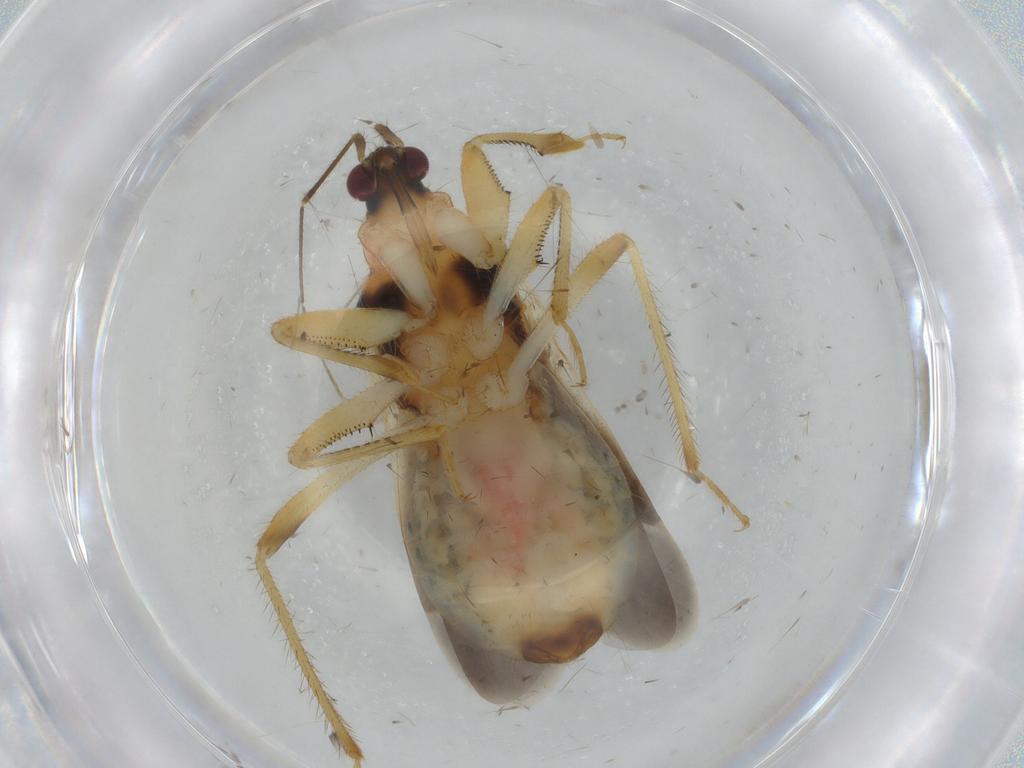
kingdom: Animalia
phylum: Arthropoda
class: Insecta
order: Hemiptera
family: Nabidae
